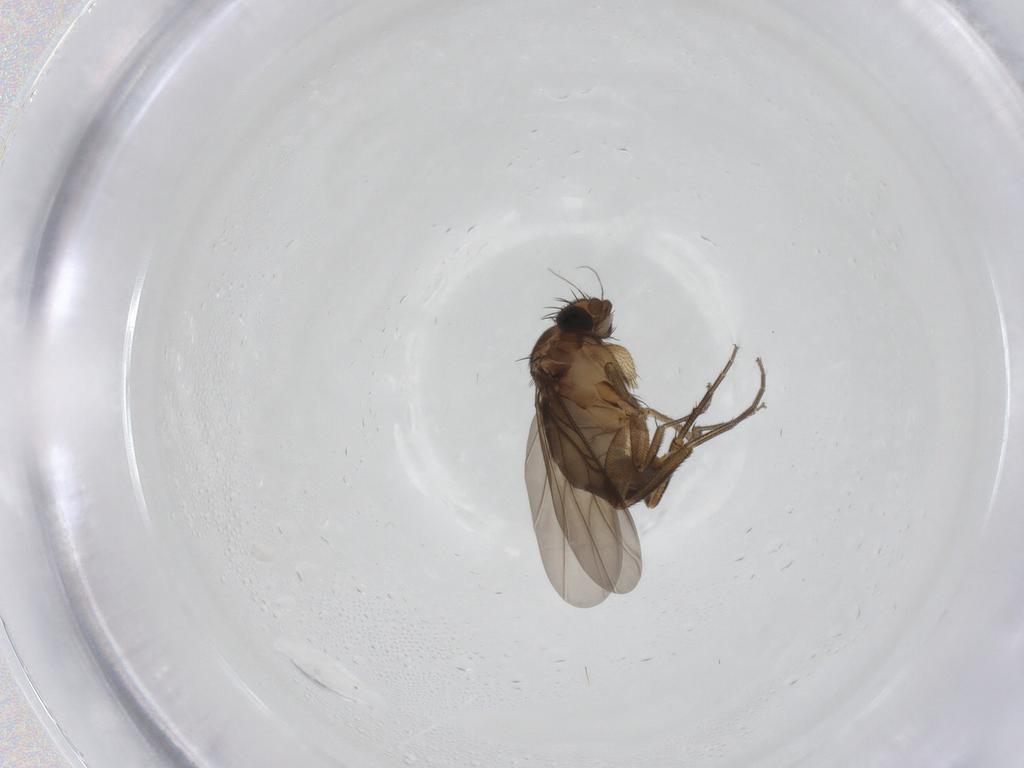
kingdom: Animalia
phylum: Arthropoda
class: Insecta
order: Diptera
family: Phoridae
